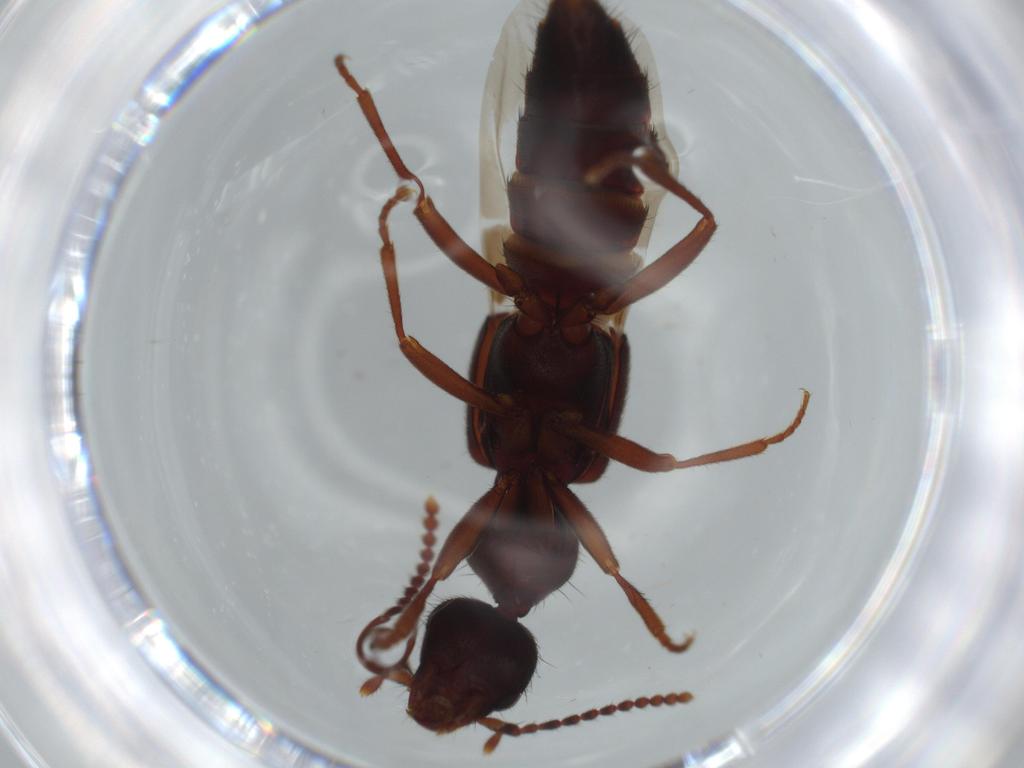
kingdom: Animalia
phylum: Arthropoda
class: Insecta
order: Coleoptera
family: Staphylinidae
